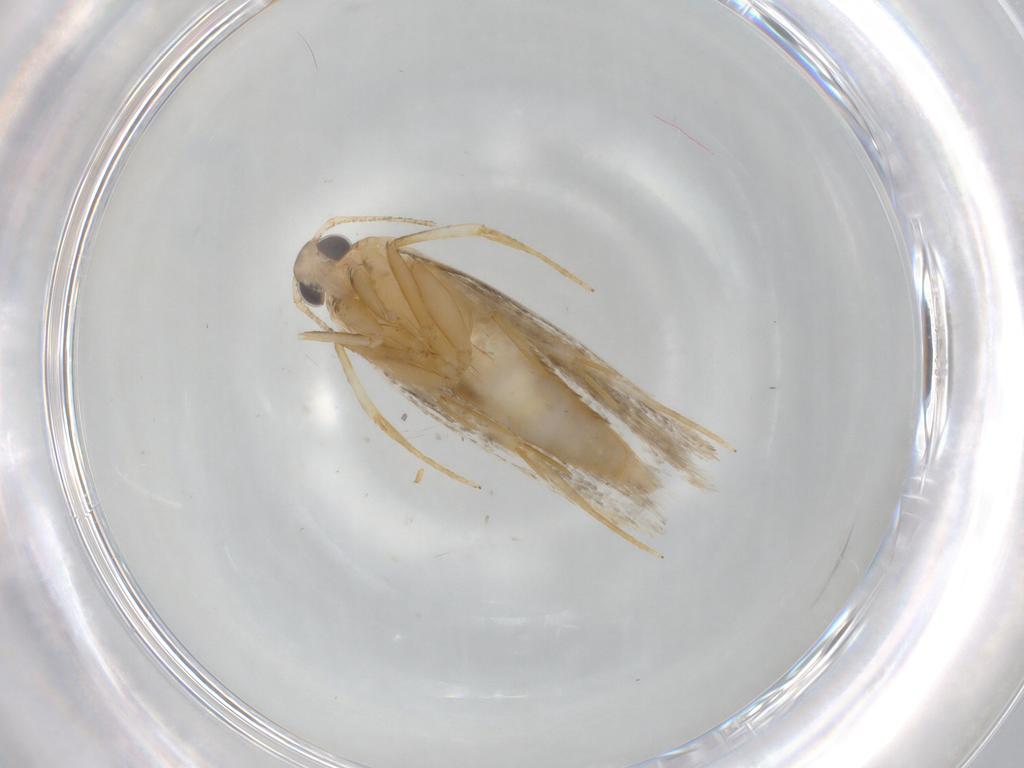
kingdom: Animalia
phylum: Arthropoda
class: Insecta
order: Lepidoptera
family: Autostichidae
